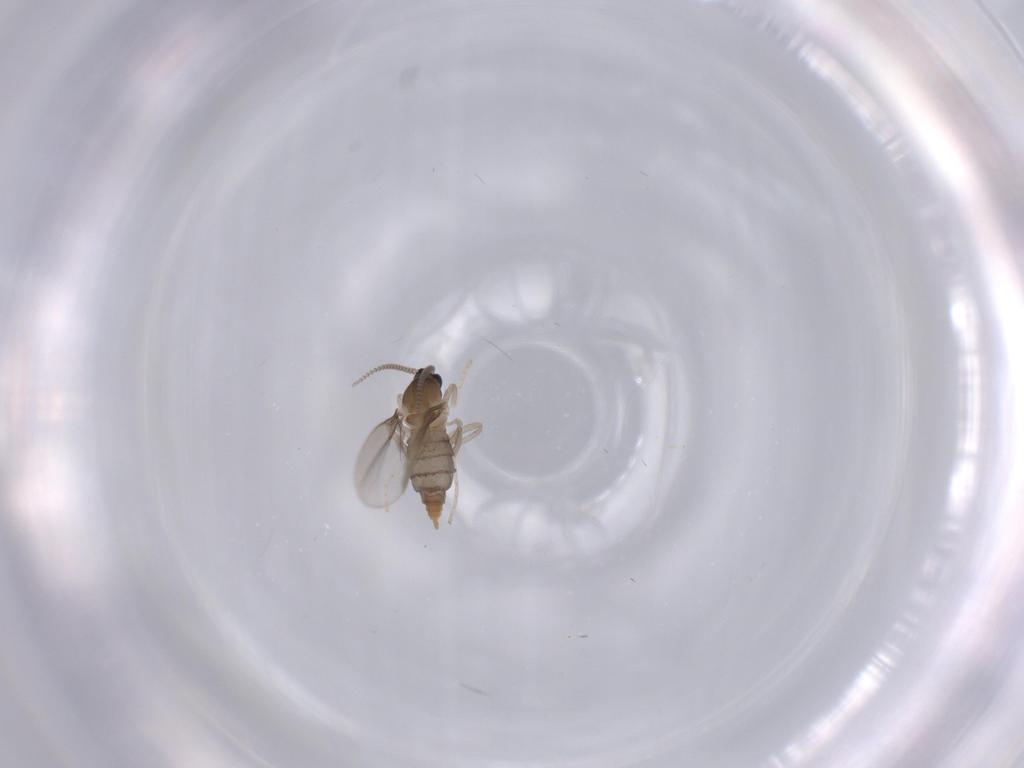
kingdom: Animalia
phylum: Arthropoda
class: Insecta
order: Diptera
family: Cecidomyiidae
